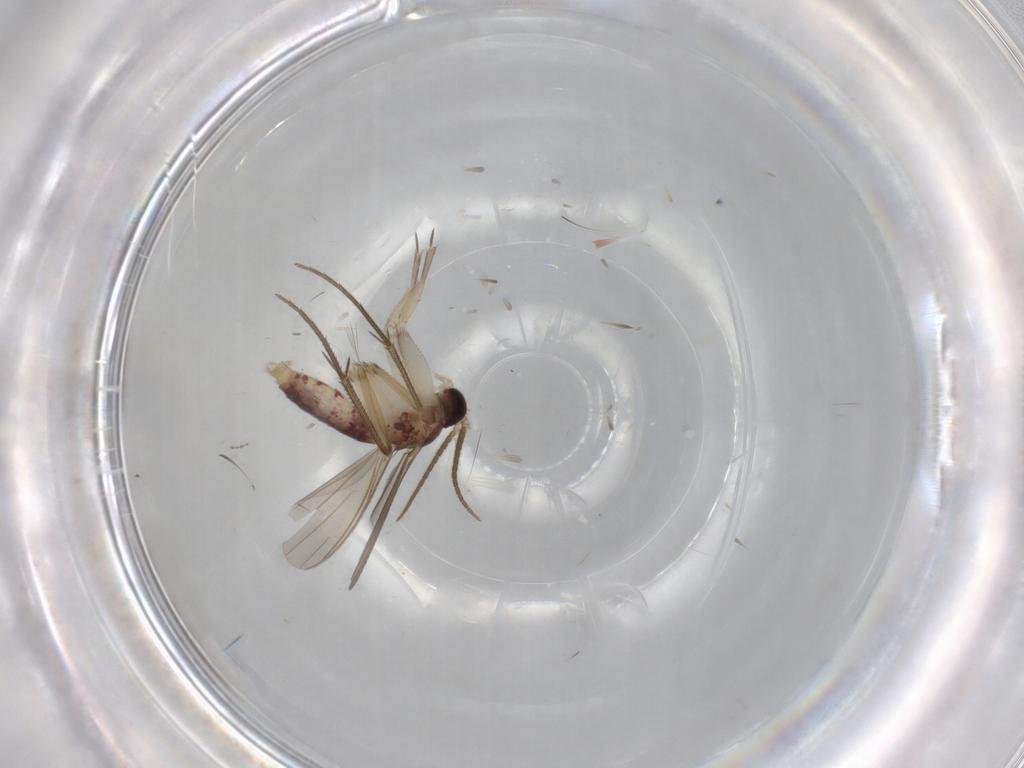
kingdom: Animalia
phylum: Arthropoda
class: Insecta
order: Diptera
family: Mycetophilidae
